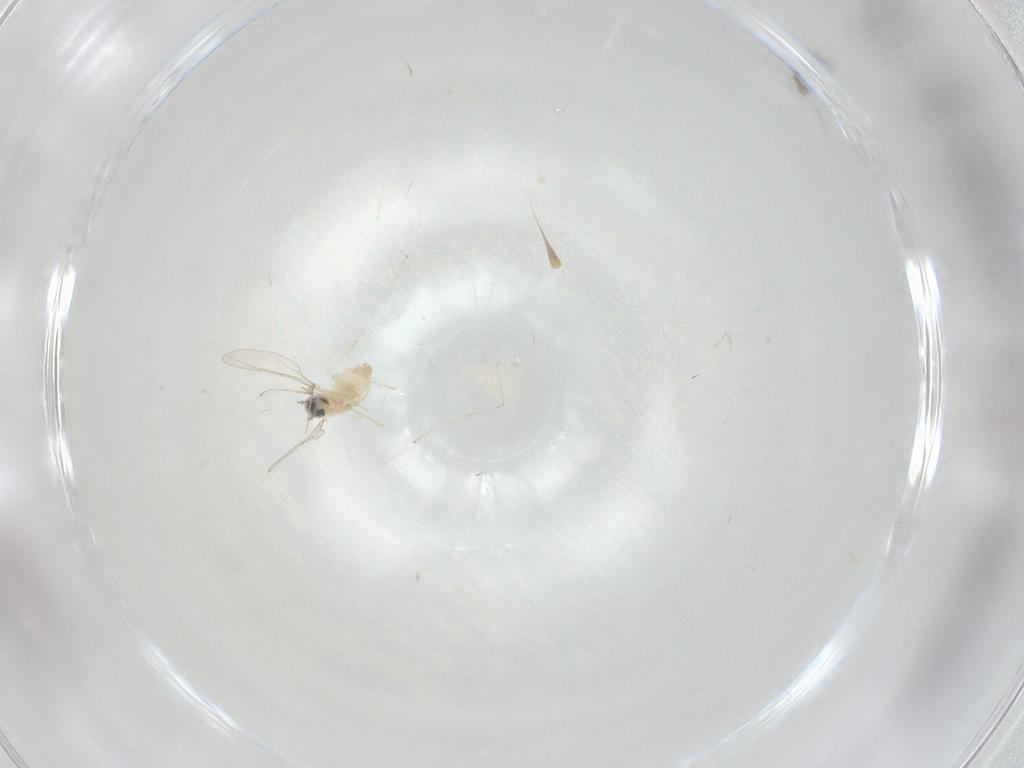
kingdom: Animalia
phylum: Arthropoda
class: Insecta
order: Diptera
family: Cecidomyiidae
